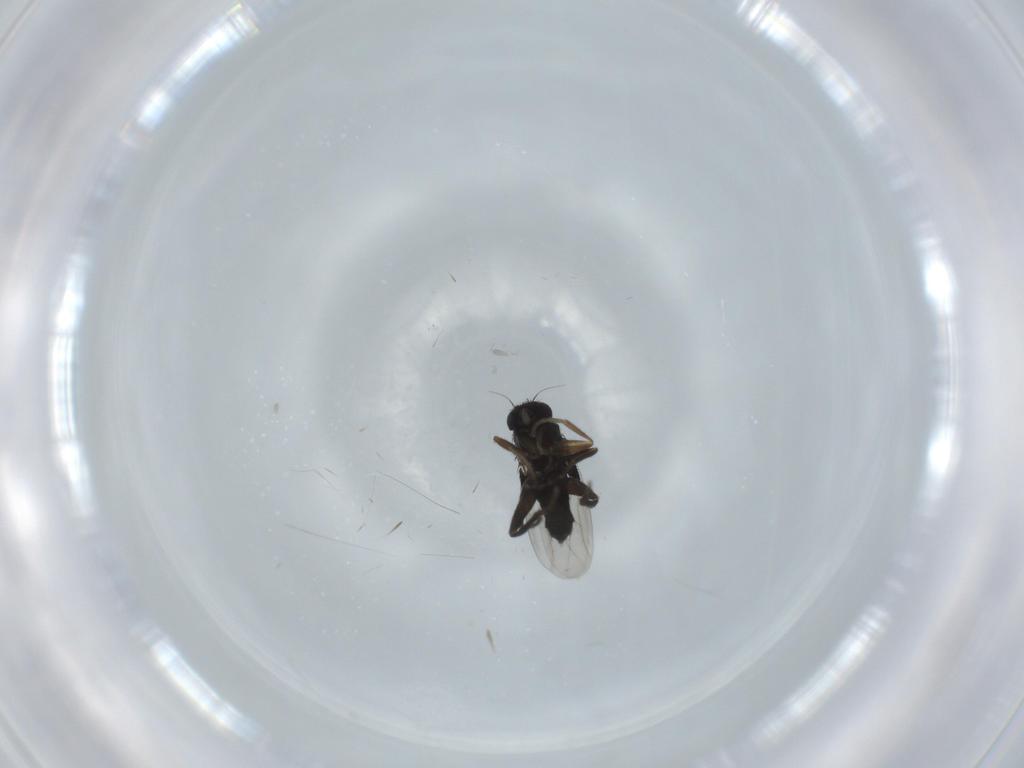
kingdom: Animalia
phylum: Arthropoda
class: Insecta
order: Diptera
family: Phoridae
